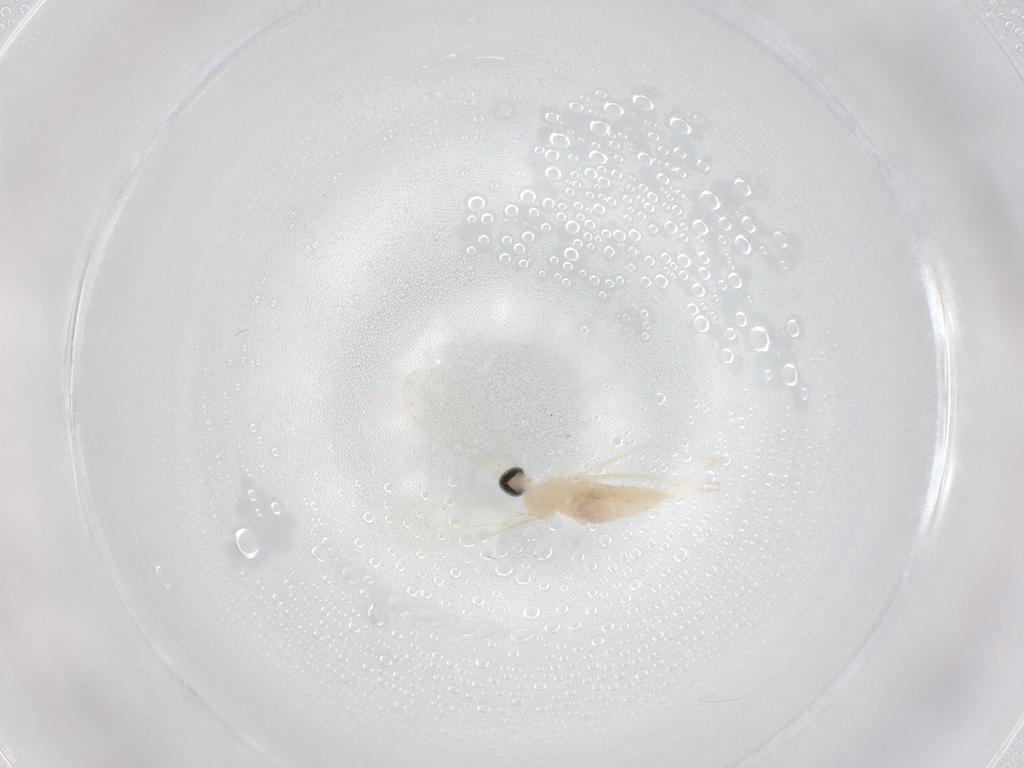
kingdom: Animalia
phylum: Arthropoda
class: Insecta
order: Diptera
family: Cecidomyiidae
